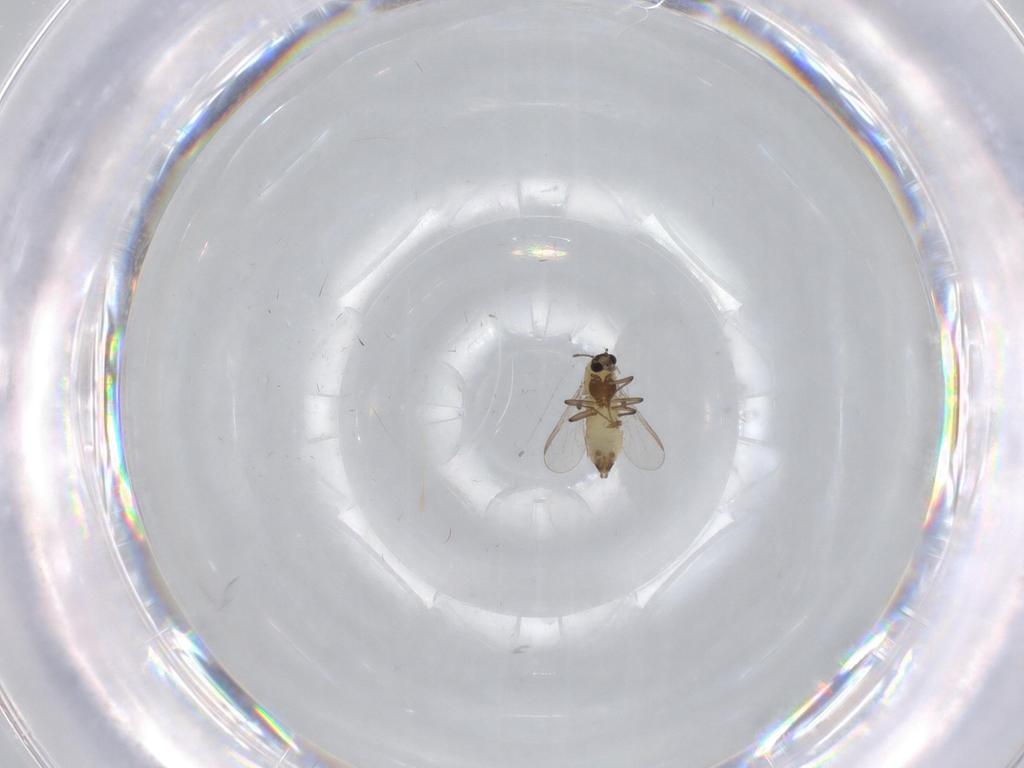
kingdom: Animalia
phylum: Arthropoda
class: Insecta
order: Diptera
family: Chironomidae
